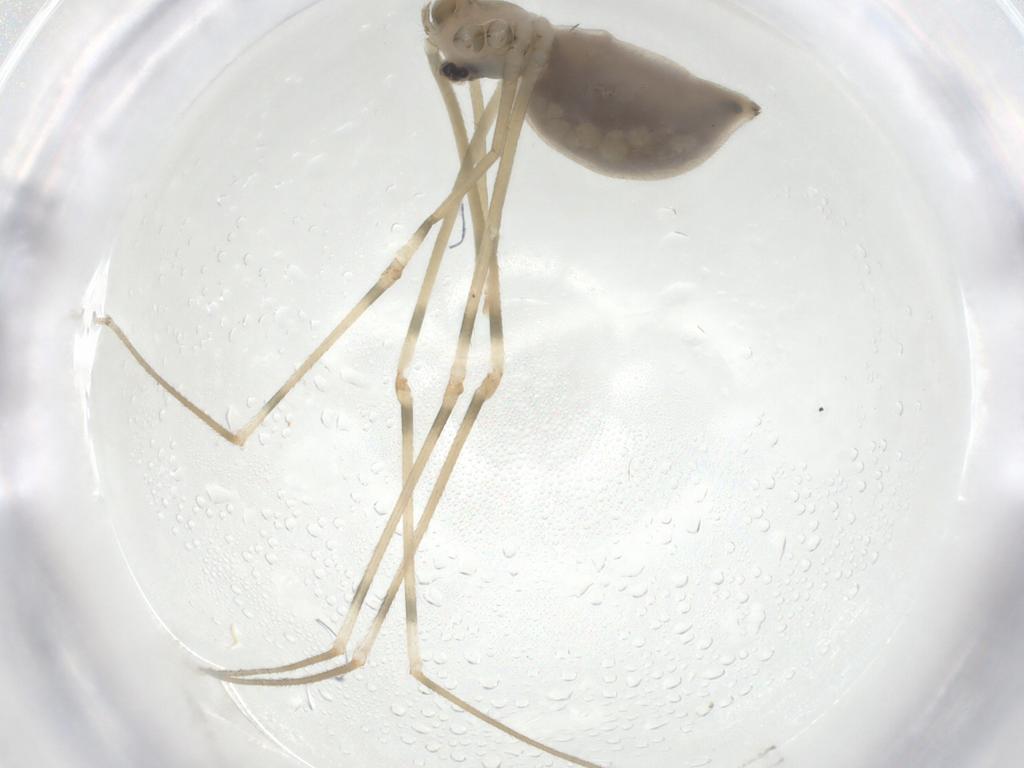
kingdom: Animalia
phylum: Arthropoda
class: Arachnida
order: Araneae
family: Pholcidae
